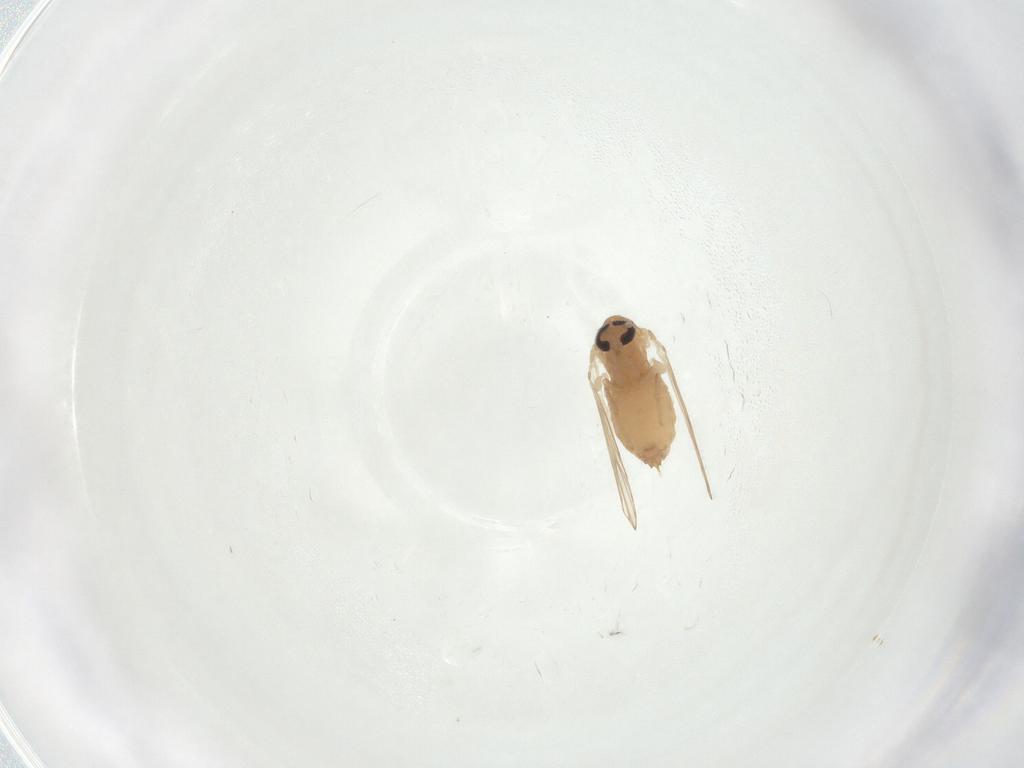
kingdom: Animalia
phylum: Arthropoda
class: Insecta
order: Diptera
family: Psychodidae
